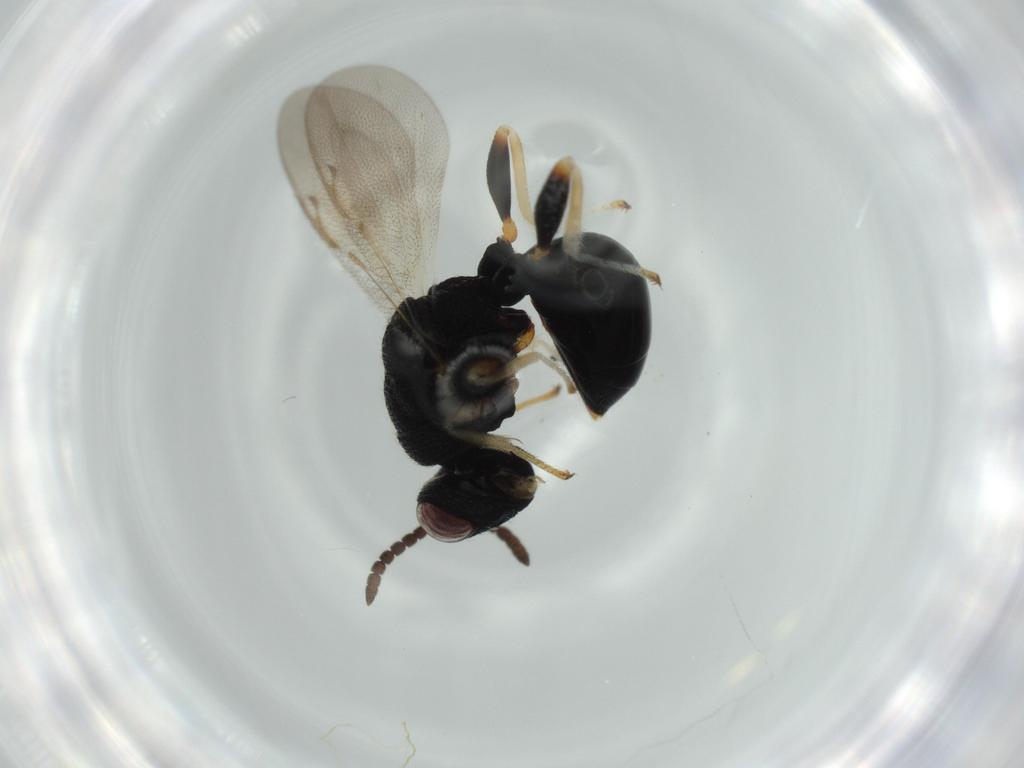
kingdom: Animalia
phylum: Arthropoda
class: Insecta
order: Hymenoptera
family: Bethylidae
